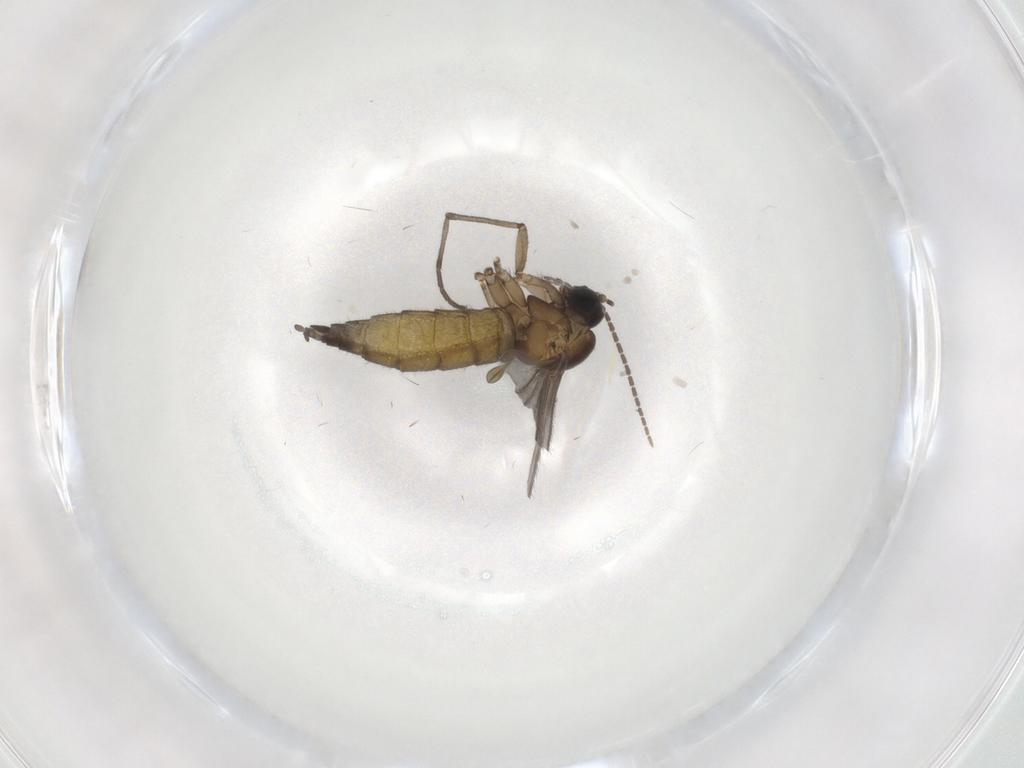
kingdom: Animalia
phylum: Arthropoda
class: Insecta
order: Diptera
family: Sciaridae
